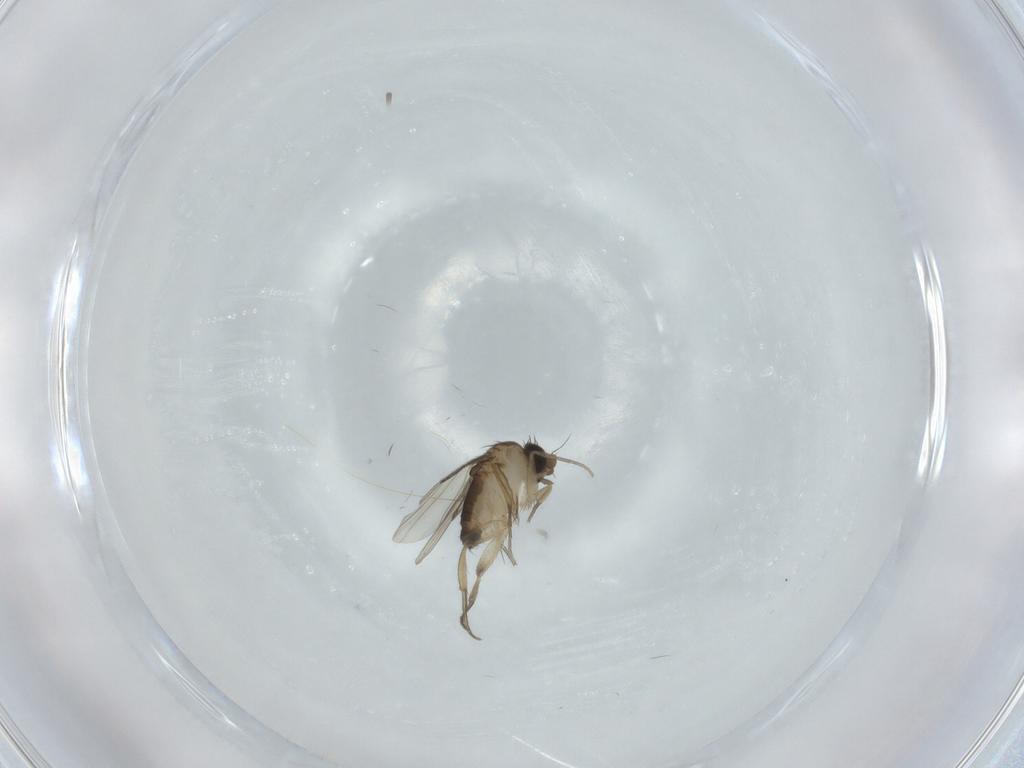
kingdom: Animalia
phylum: Arthropoda
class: Insecta
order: Diptera
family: Phoridae
